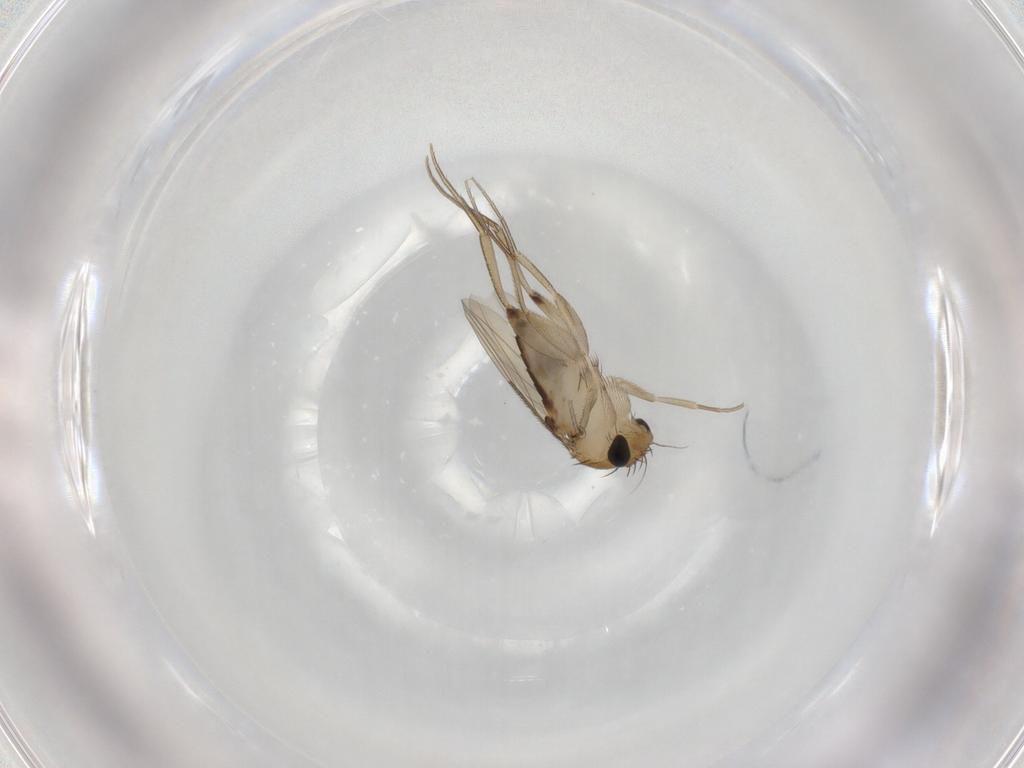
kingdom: Animalia
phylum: Arthropoda
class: Insecta
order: Diptera
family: Phoridae
